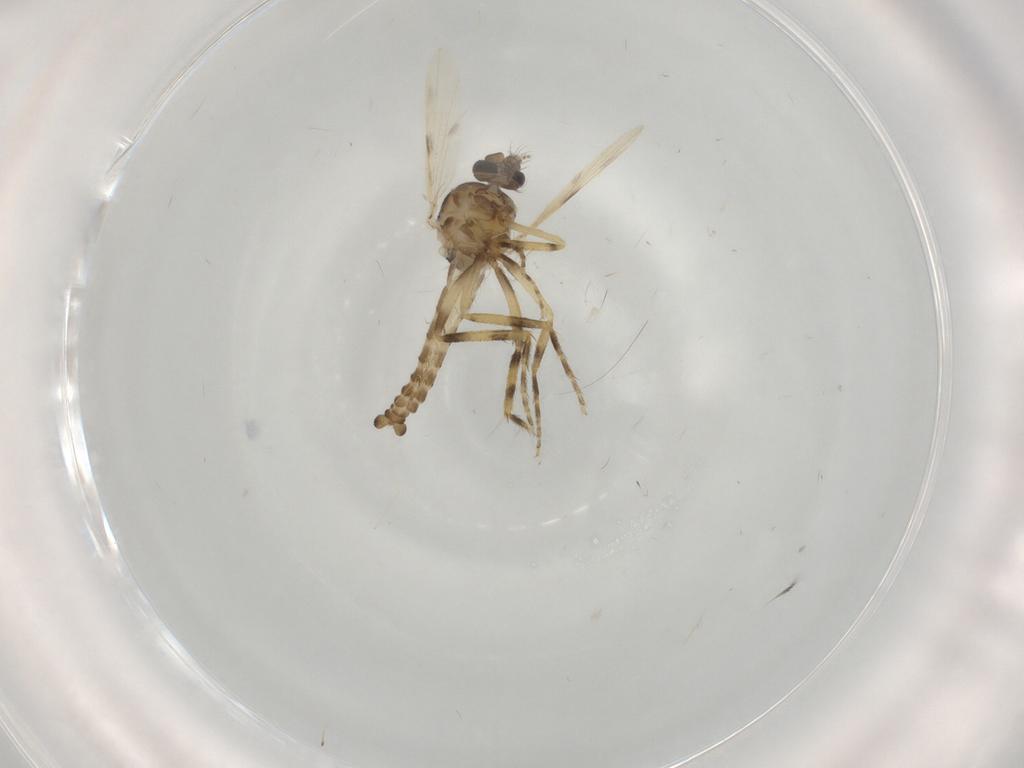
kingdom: Animalia
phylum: Arthropoda
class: Insecta
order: Diptera
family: Ceratopogonidae
